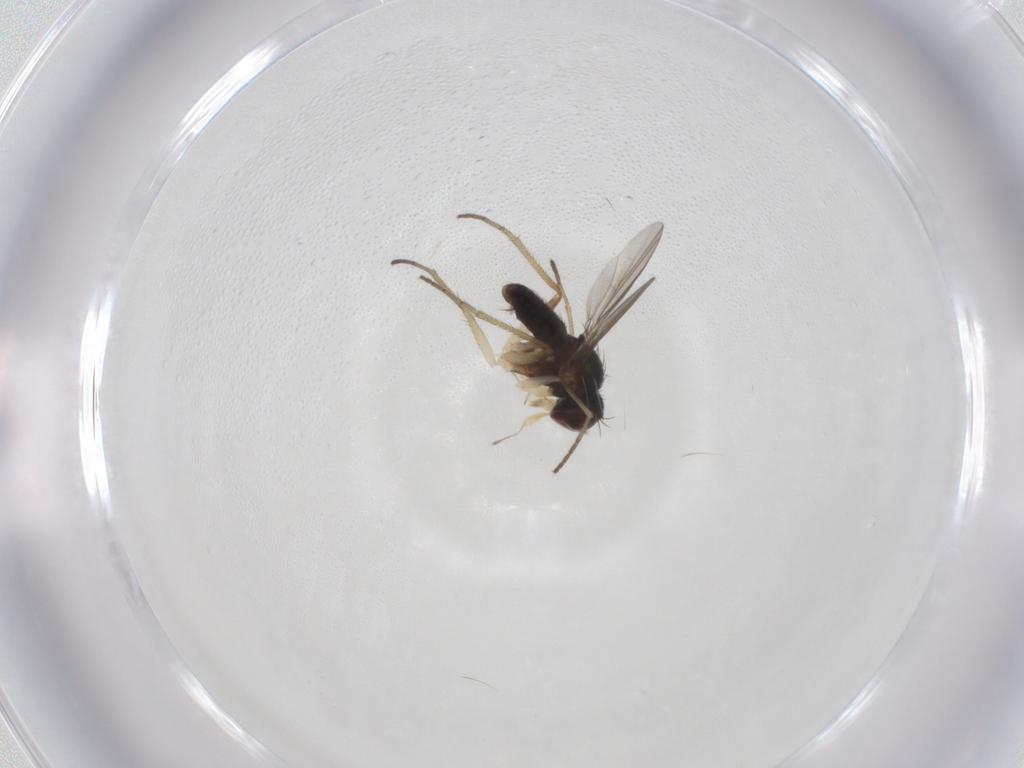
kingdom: Animalia
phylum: Arthropoda
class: Insecta
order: Diptera
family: Dolichopodidae
